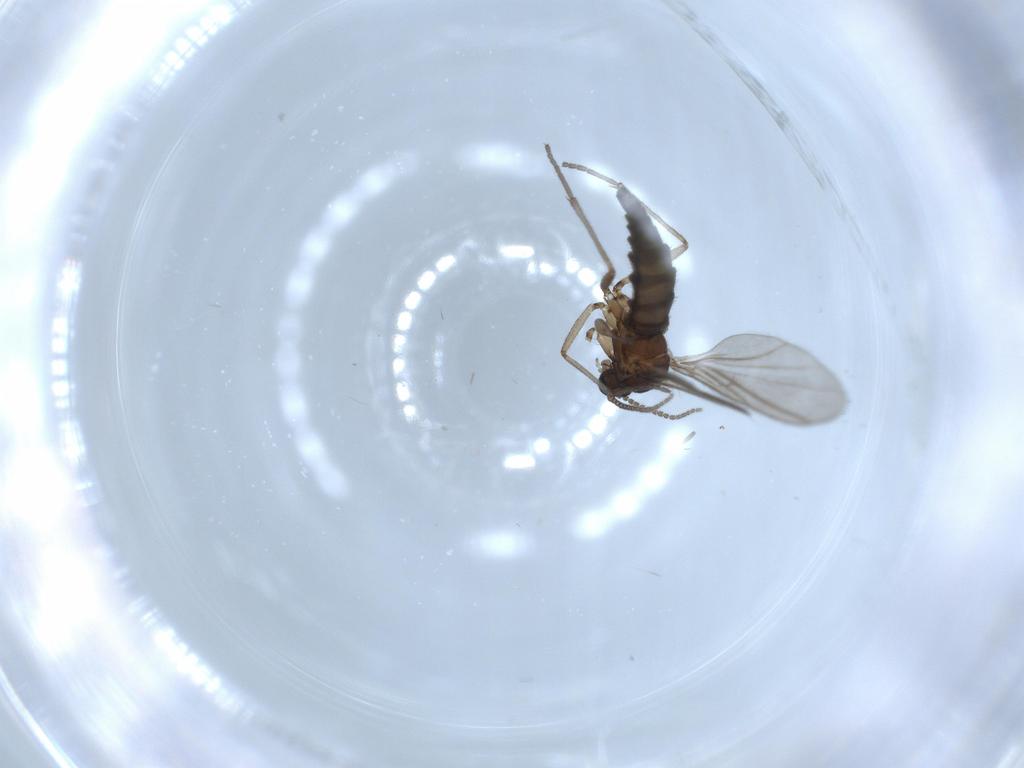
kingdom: Animalia
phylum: Arthropoda
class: Insecta
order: Diptera
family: Sciaridae
